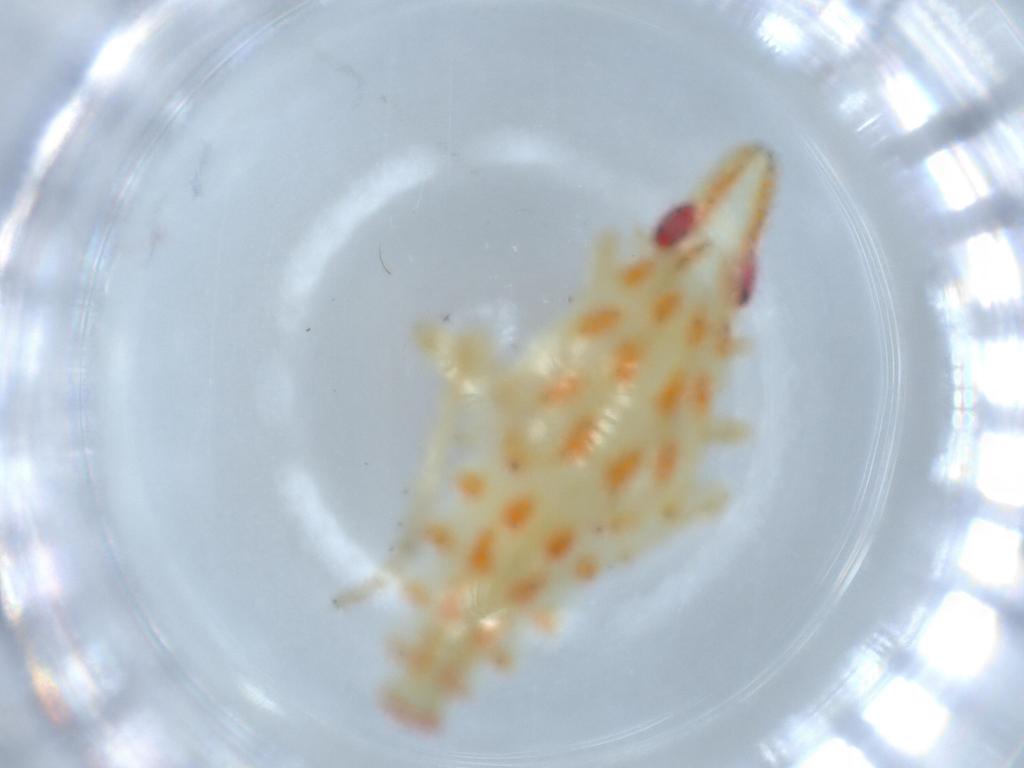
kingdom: Animalia
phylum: Arthropoda
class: Insecta
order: Hemiptera
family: Tropiduchidae
